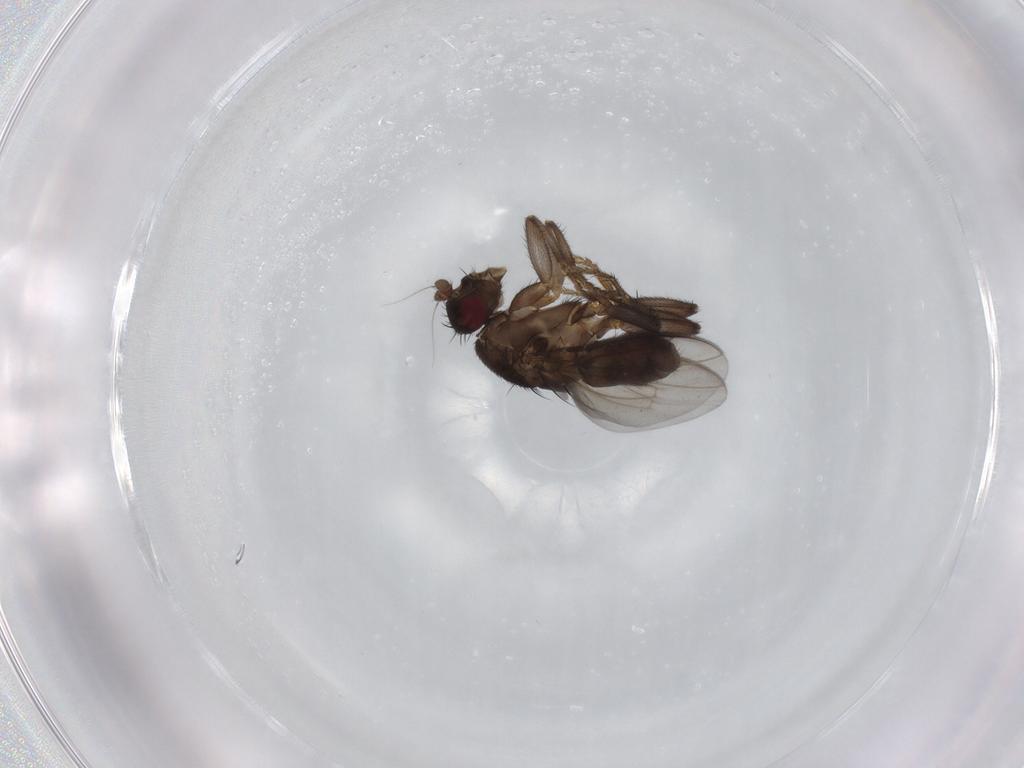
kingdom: Animalia
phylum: Arthropoda
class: Insecta
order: Diptera
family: Sphaeroceridae
